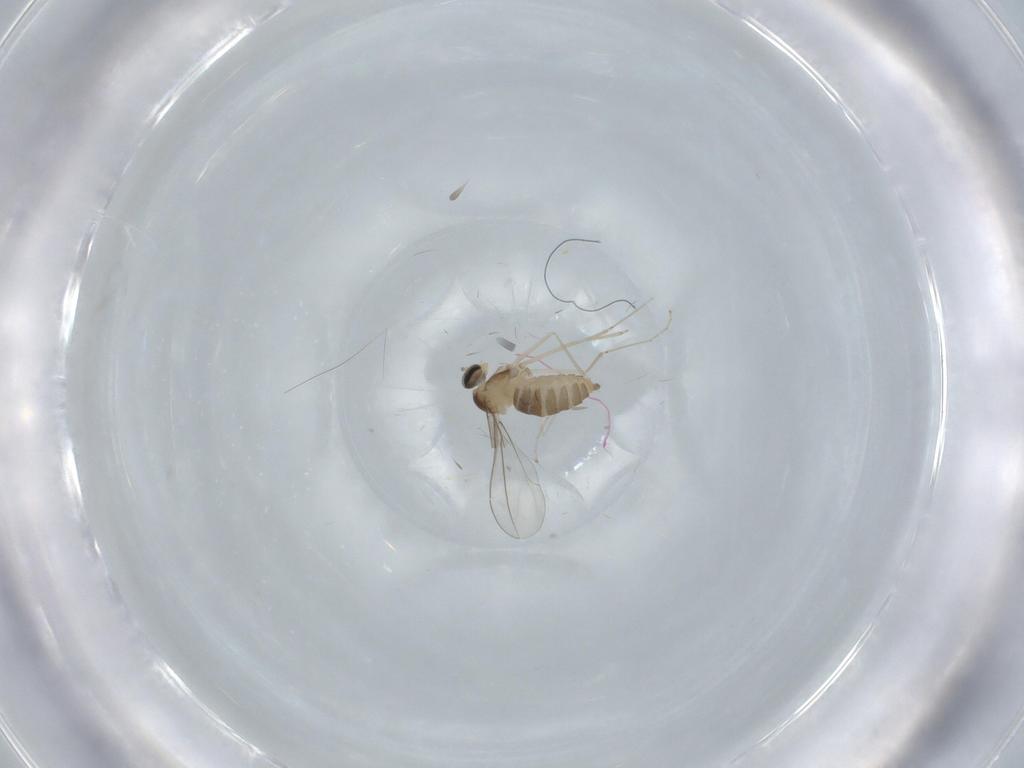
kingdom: Animalia
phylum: Arthropoda
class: Insecta
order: Diptera
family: Cecidomyiidae
